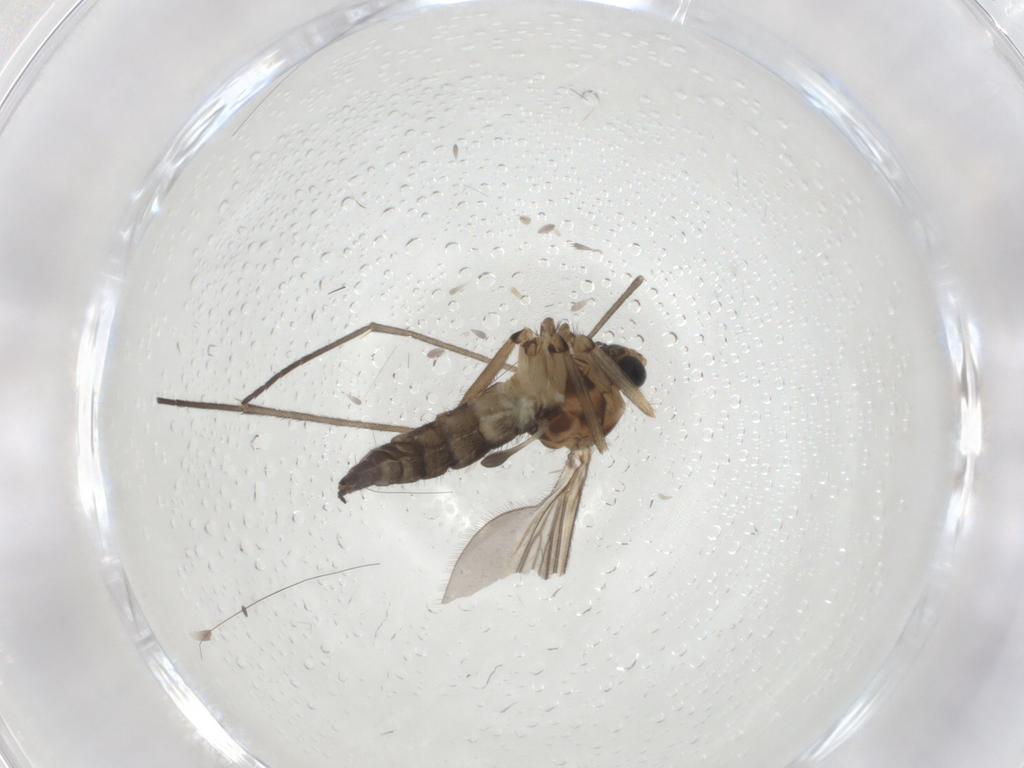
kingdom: Animalia
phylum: Arthropoda
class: Insecta
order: Diptera
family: Sciaridae
